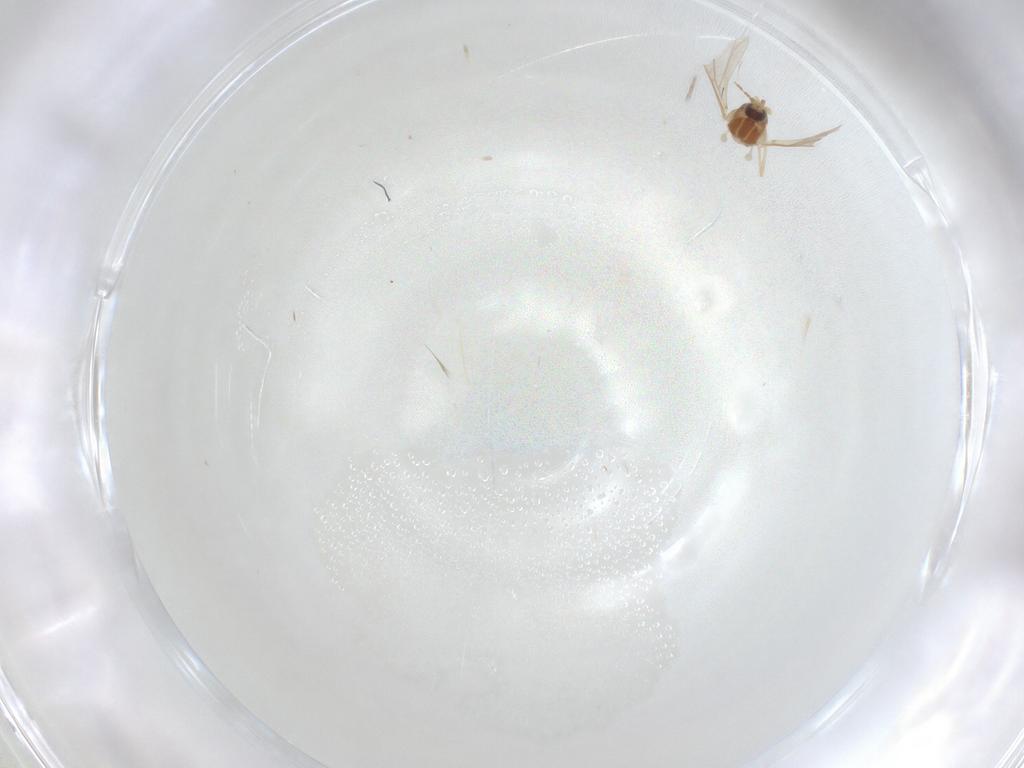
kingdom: Animalia
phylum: Arthropoda
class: Insecta
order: Diptera
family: Cecidomyiidae
